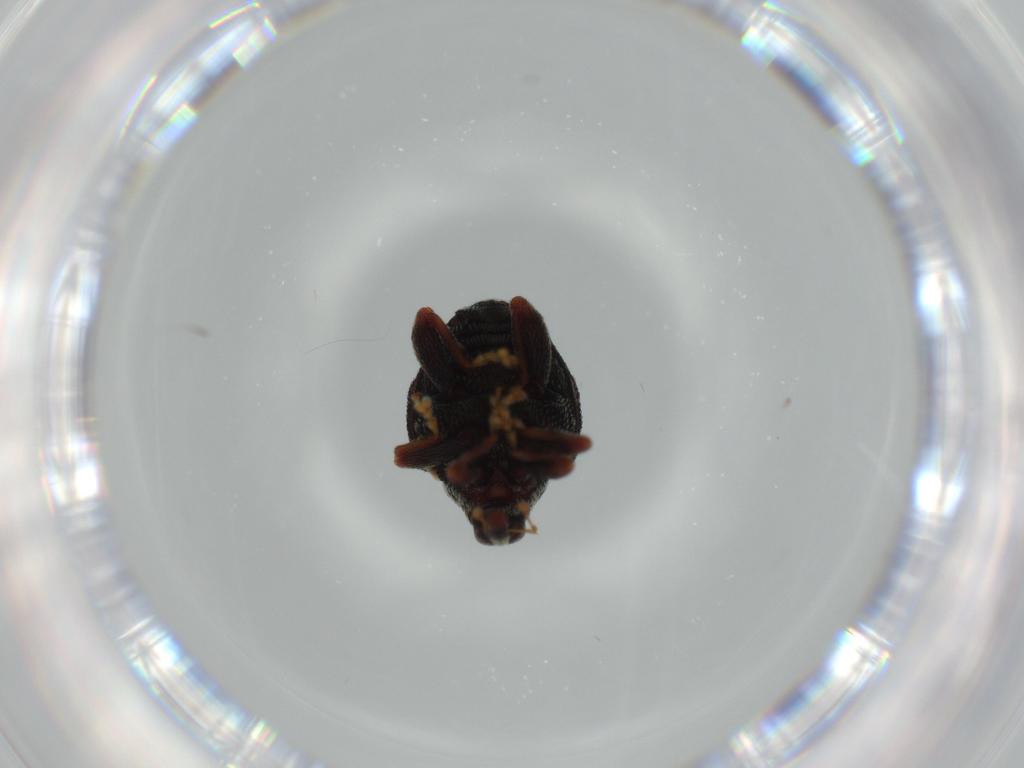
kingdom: Animalia
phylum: Arthropoda
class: Insecta
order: Coleoptera
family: Curculionidae
